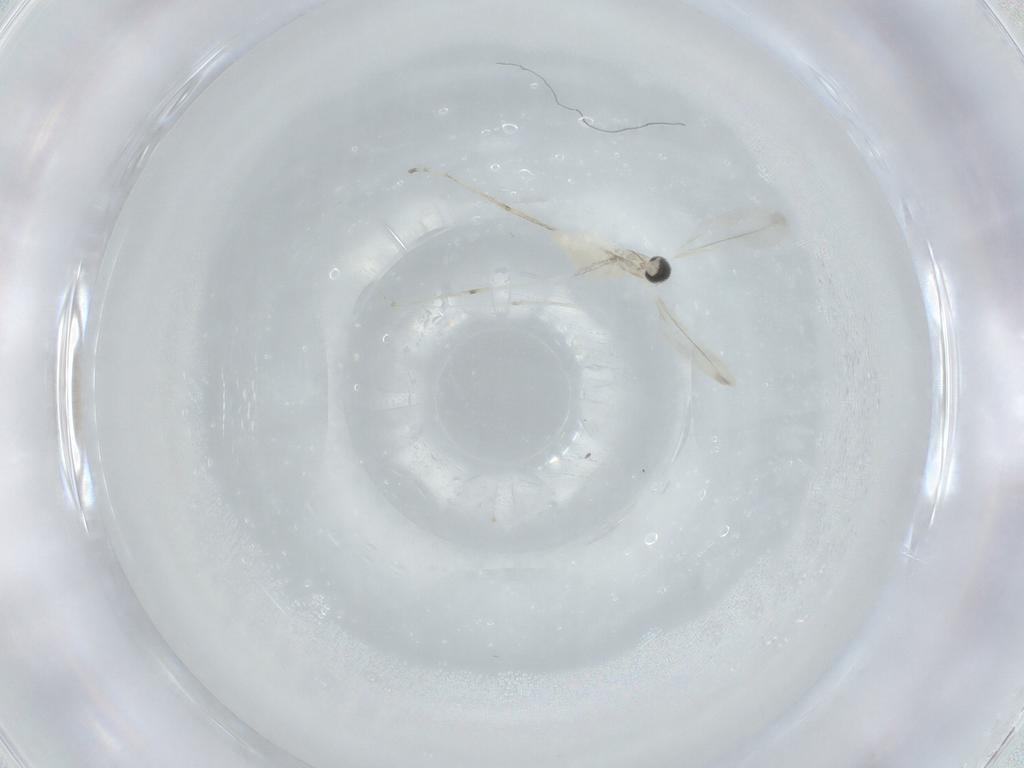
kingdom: Animalia
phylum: Arthropoda
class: Insecta
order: Diptera
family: Cecidomyiidae
